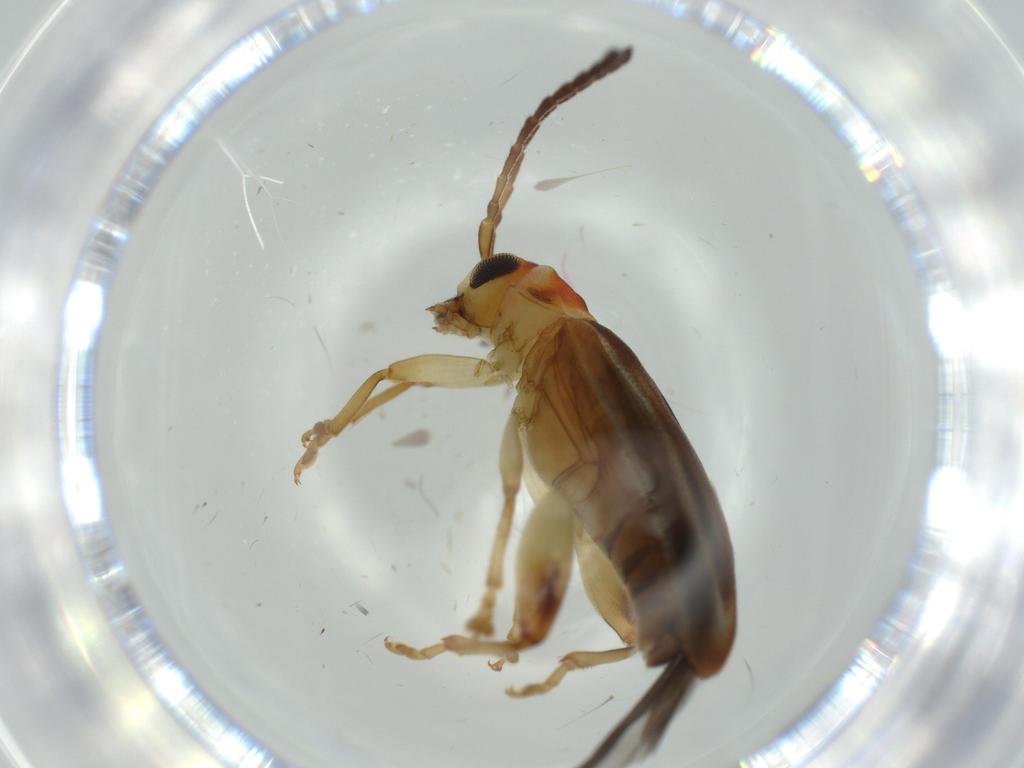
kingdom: Animalia
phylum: Arthropoda
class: Insecta
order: Coleoptera
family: Chrysomelidae
